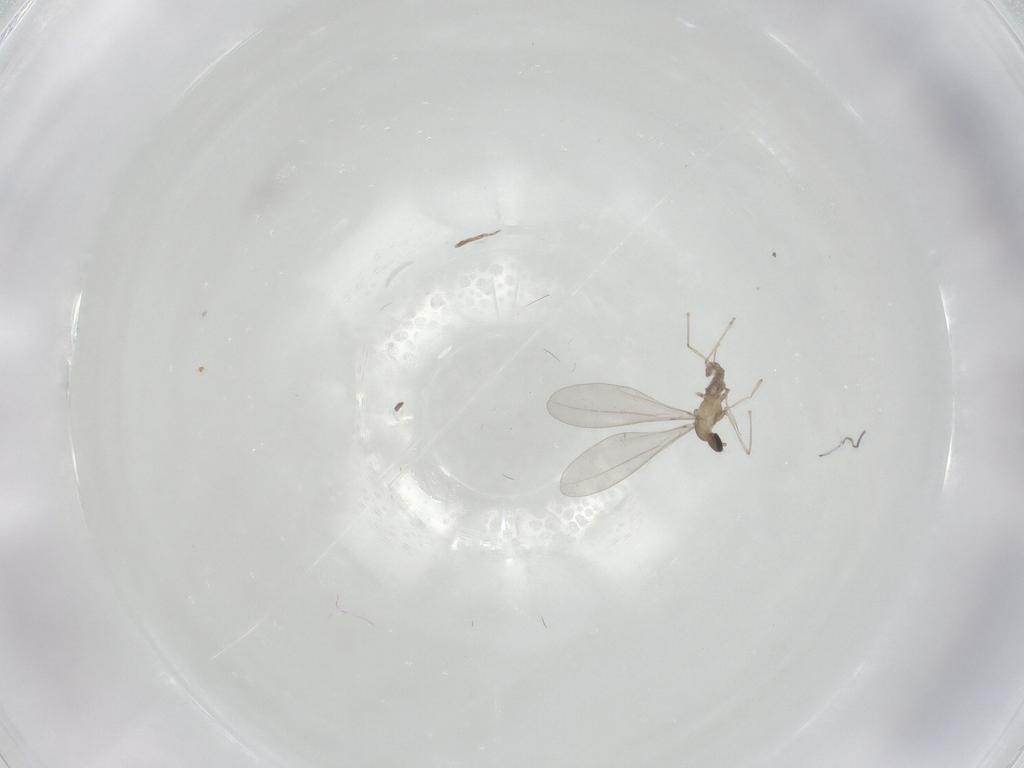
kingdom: Animalia
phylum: Arthropoda
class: Insecta
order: Diptera
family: Cecidomyiidae
